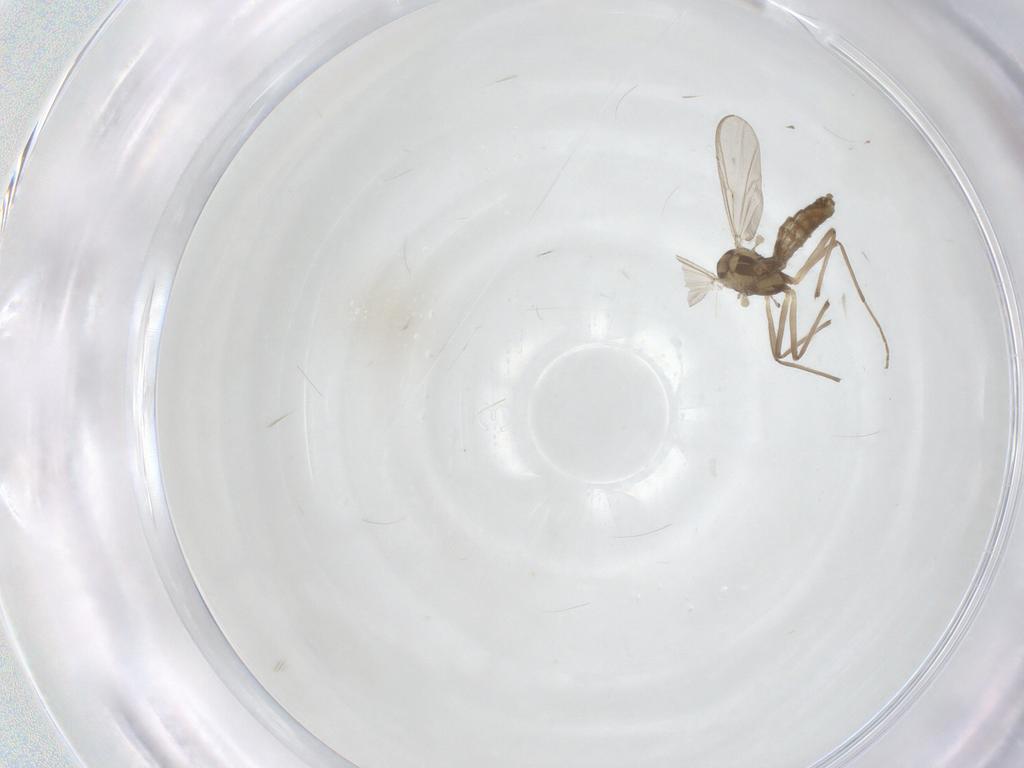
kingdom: Animalia
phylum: Arthropoda
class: Insecta
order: Diptera
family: Chironomidae
